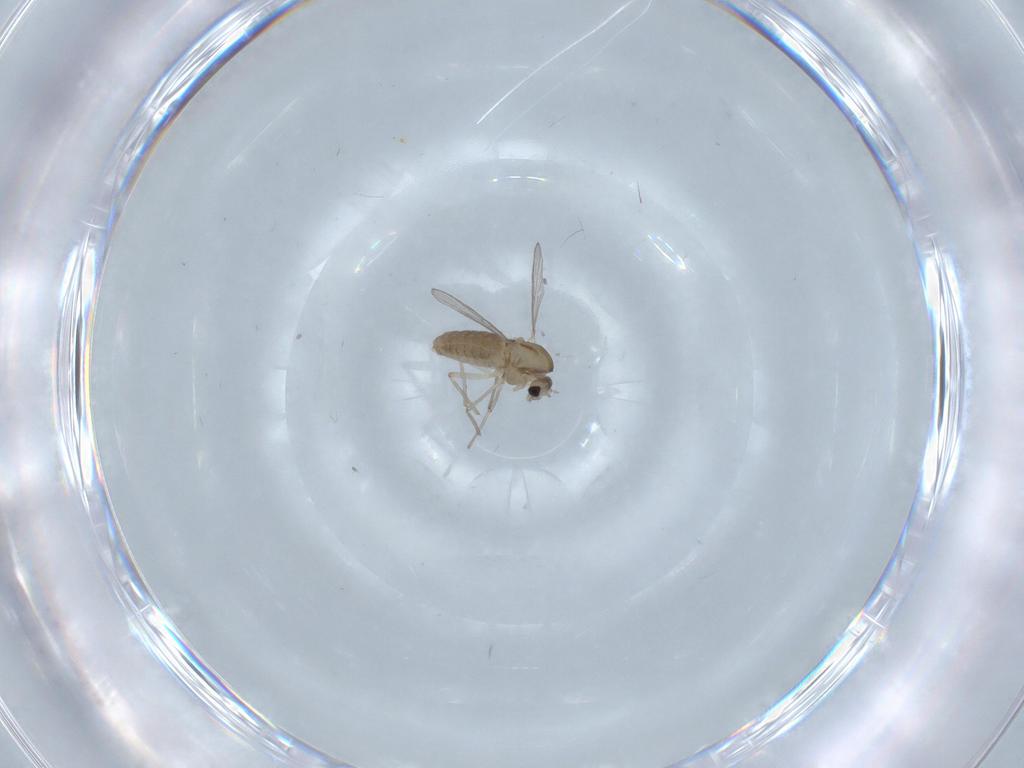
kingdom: Animalia
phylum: Arthropoda
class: Insecta
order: Diptera
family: Chironomidae
